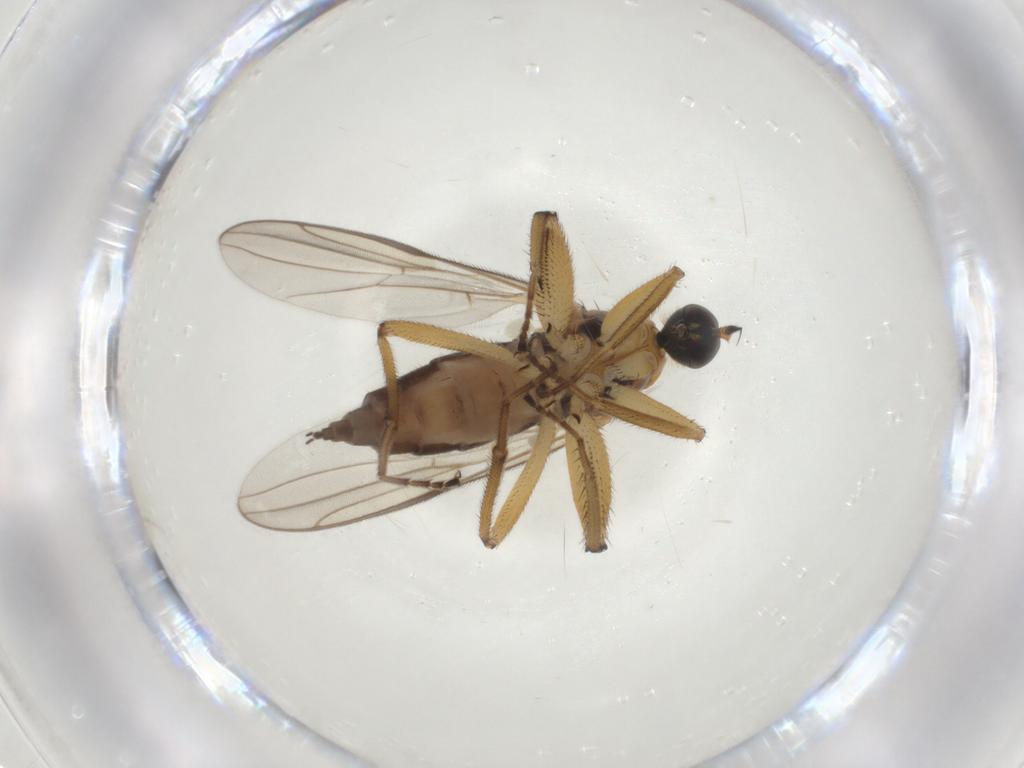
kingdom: Animalia
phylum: Arthropoda
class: Insecta
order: Diptera
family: Hybotidae
